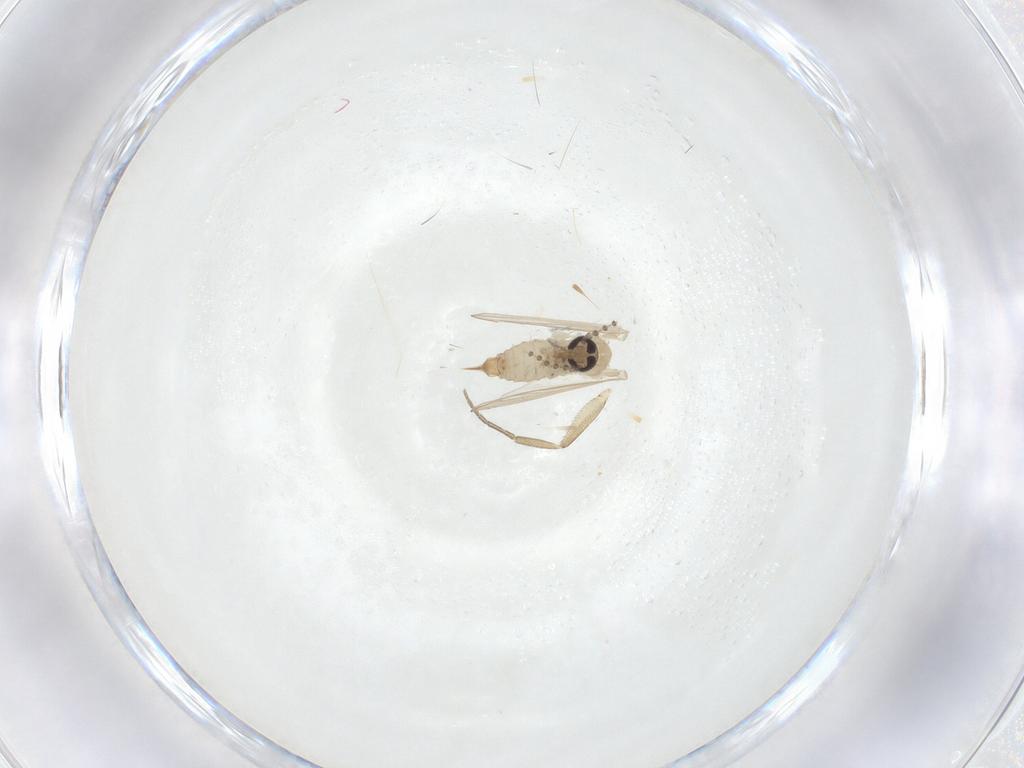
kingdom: Animalia
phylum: Arthropoda
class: Insecta
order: Diptera
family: Psychodidae
